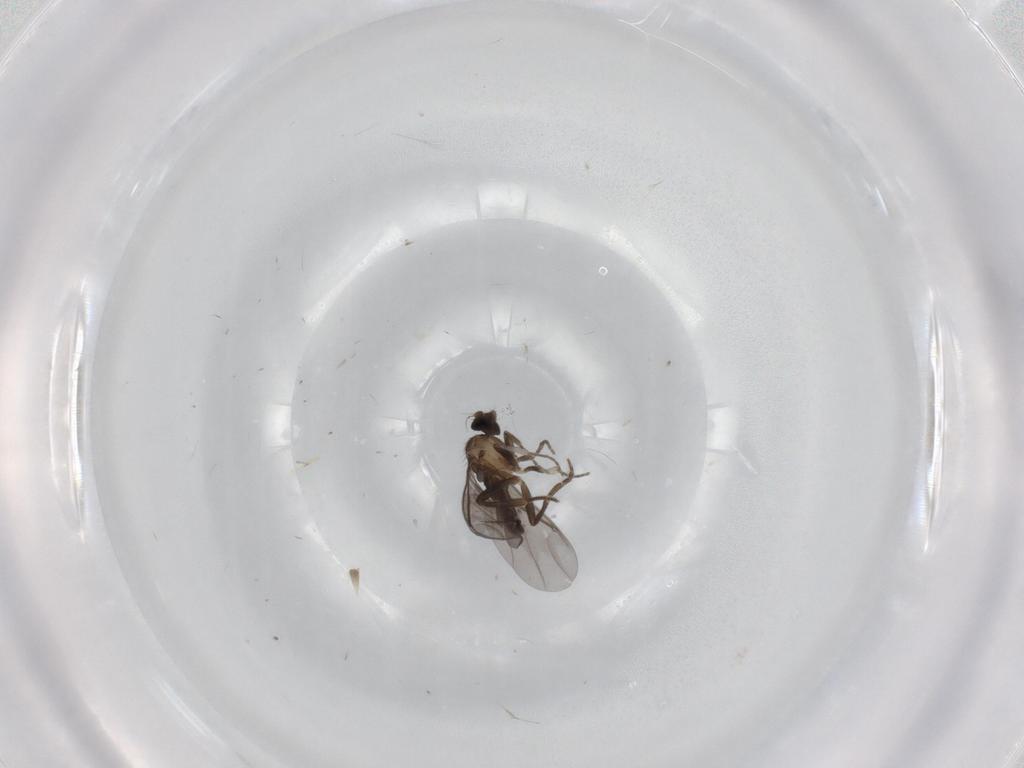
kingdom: Animalia
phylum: Arthropoda
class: Insecta
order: Diptera
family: Phoridae
